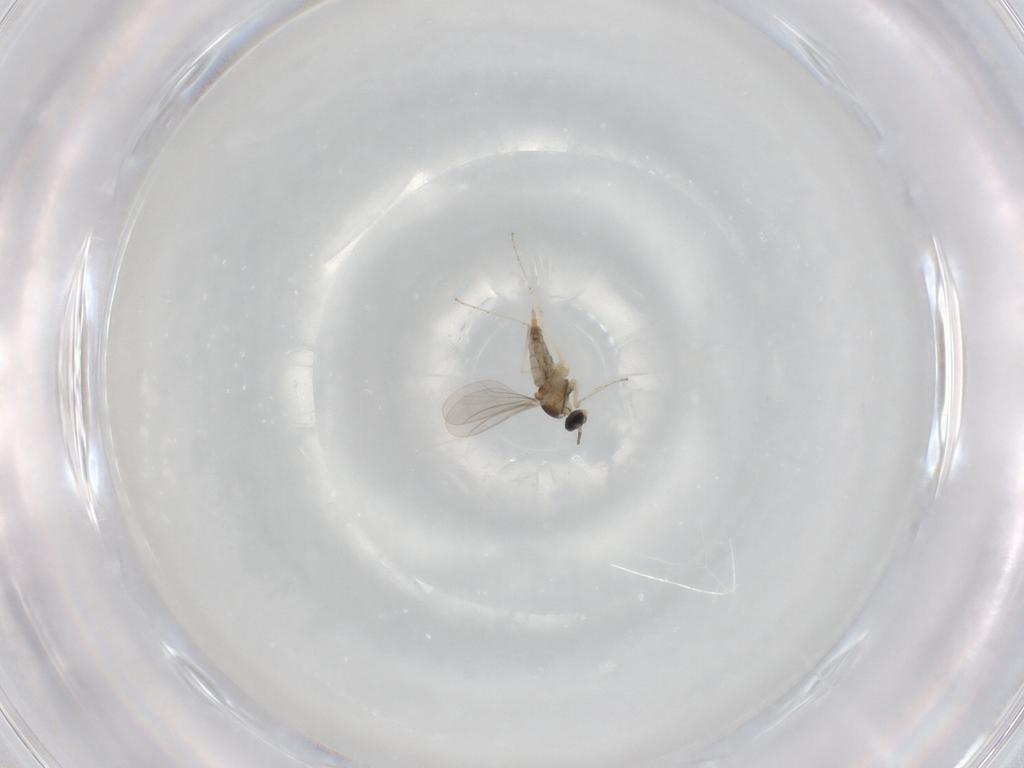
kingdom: Animalia
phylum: Arthropoda
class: Insecta
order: Diptera
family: Cecidomyiidae
